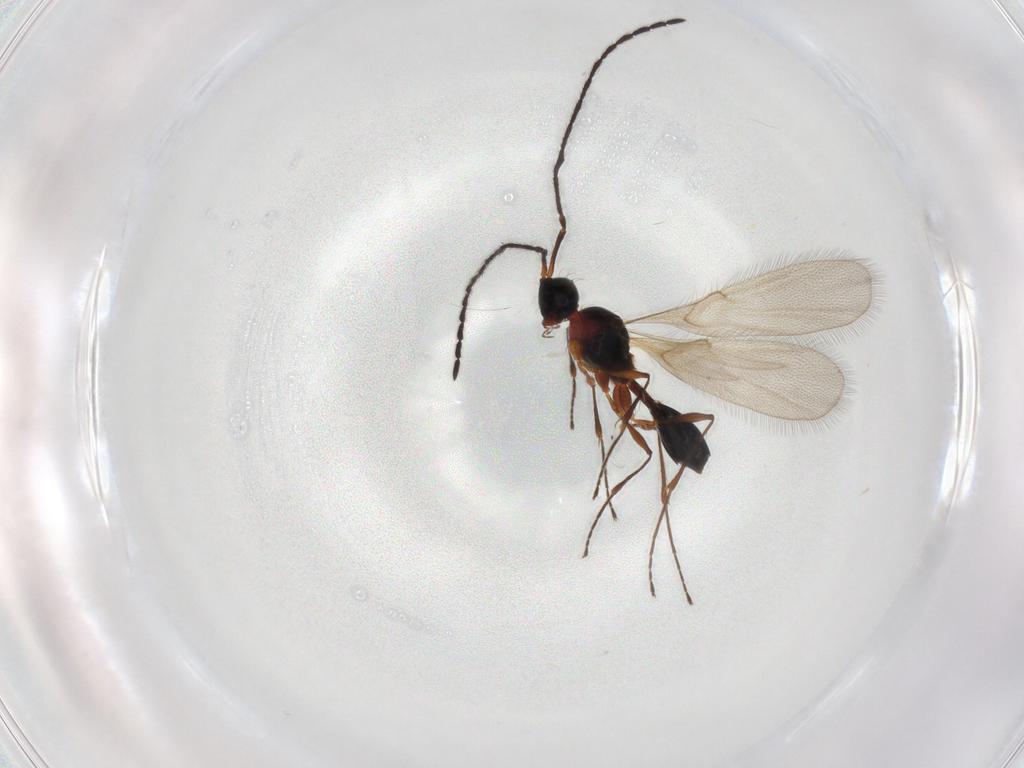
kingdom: Animalia
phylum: Arthropoda
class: Insecta
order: Hymenoptera
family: Diapriidae
